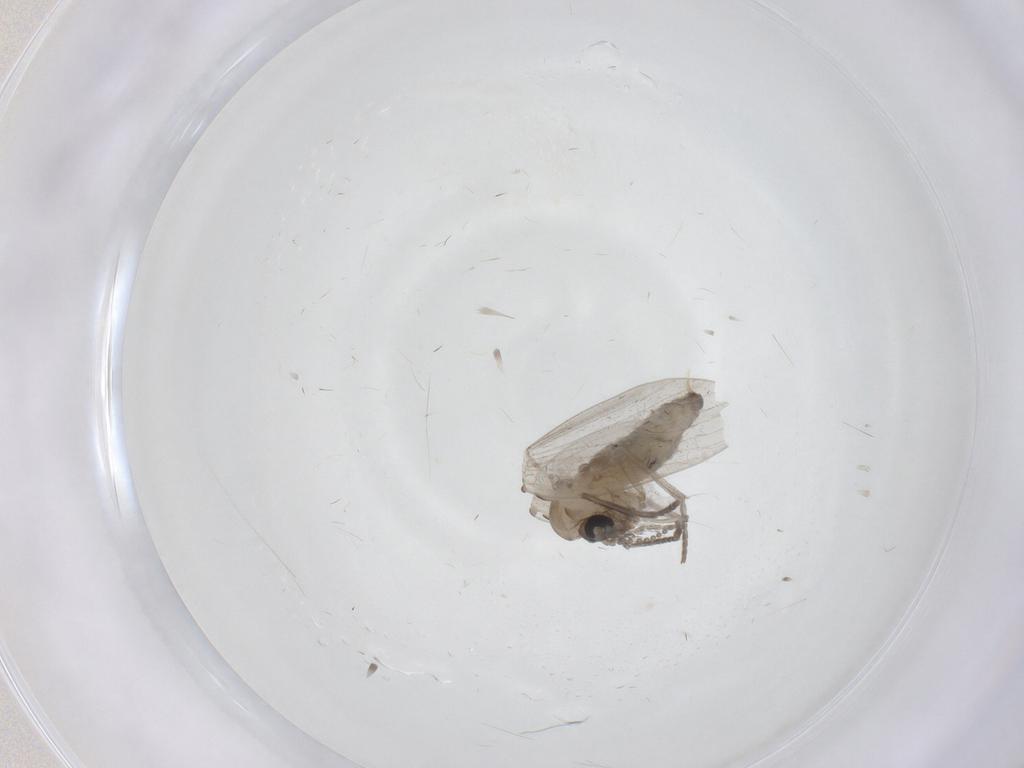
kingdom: Animalia
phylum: Arthropoda
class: Insecta
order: Diptera
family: Psychodidae
